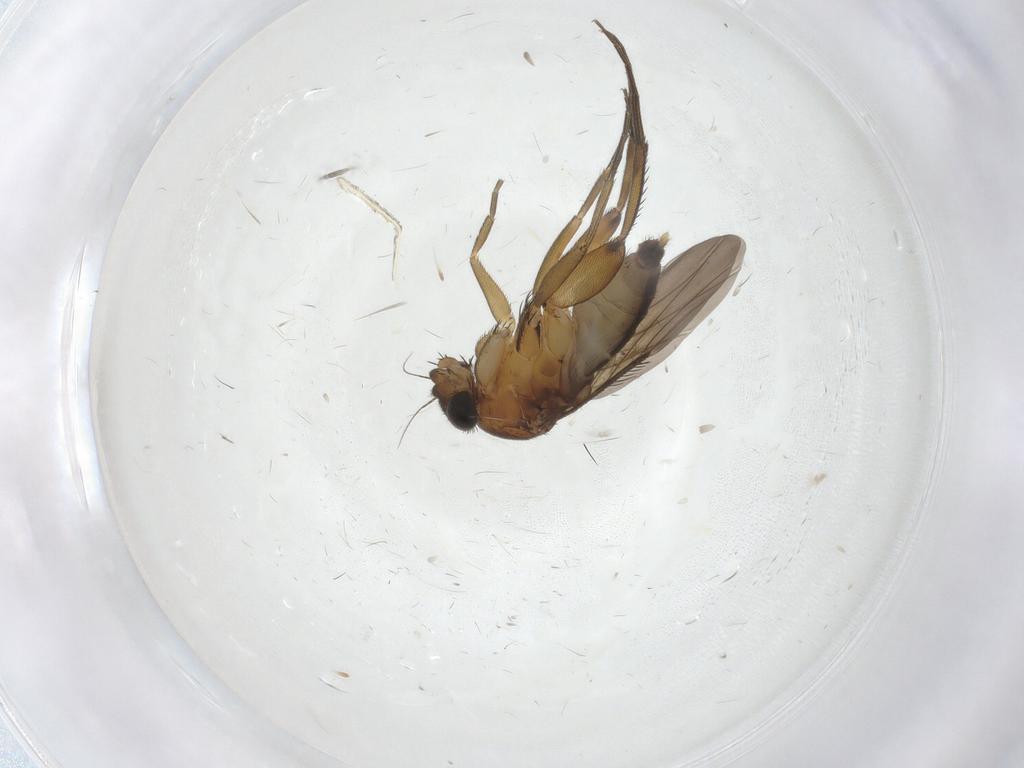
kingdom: Animalia
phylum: Arthropoda
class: Insecta
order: Diptera
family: Phoridae
